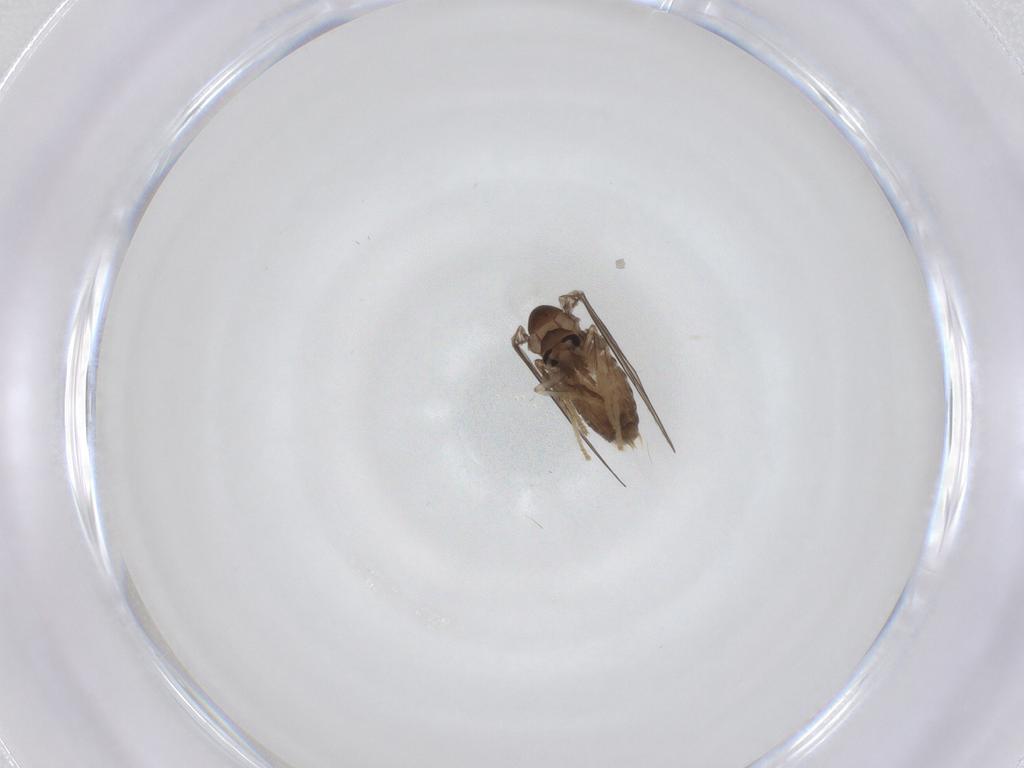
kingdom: Animalia
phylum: Arthropoda
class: Insecta
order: Diptera
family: Psychodidae
